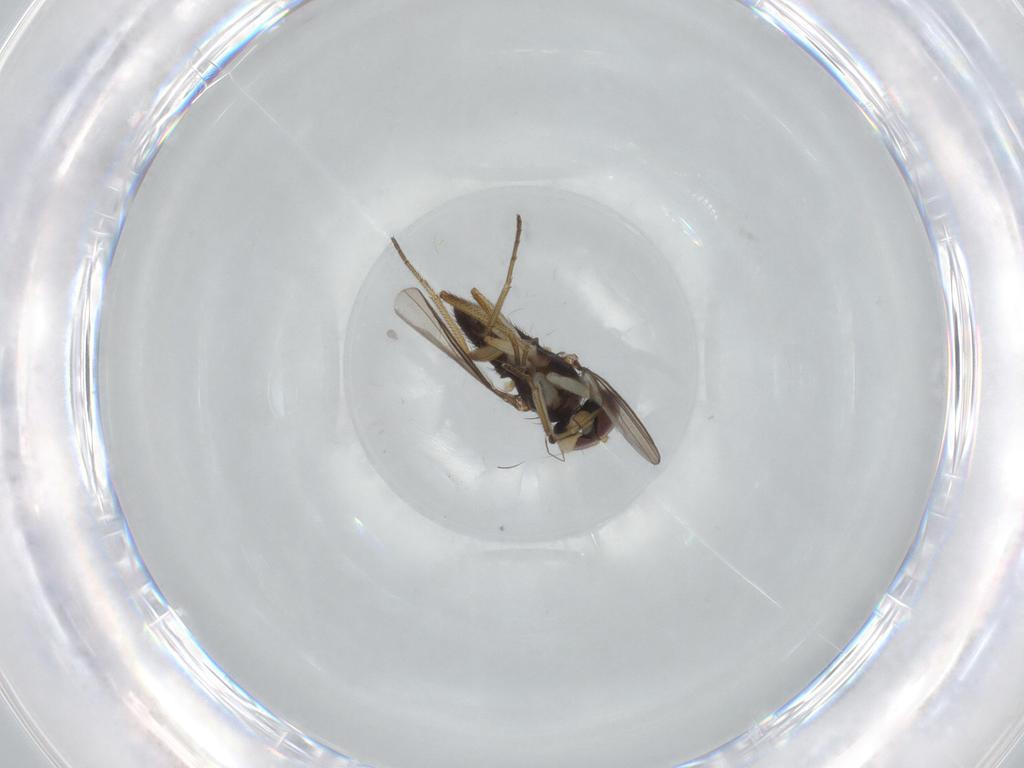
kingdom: Animalia
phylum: Arthropoda
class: Insecta
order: Diptera
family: Dolichopodidae
